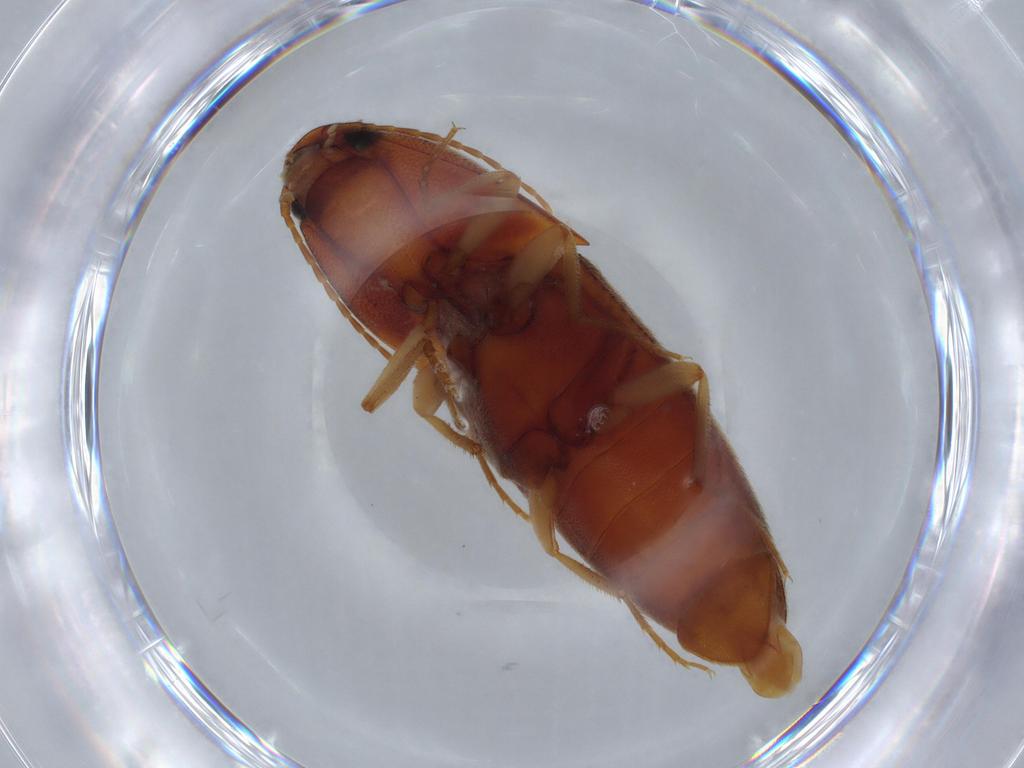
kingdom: Animalia
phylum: Arthropoda
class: Insecta
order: Coleoptera
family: Elateridae
